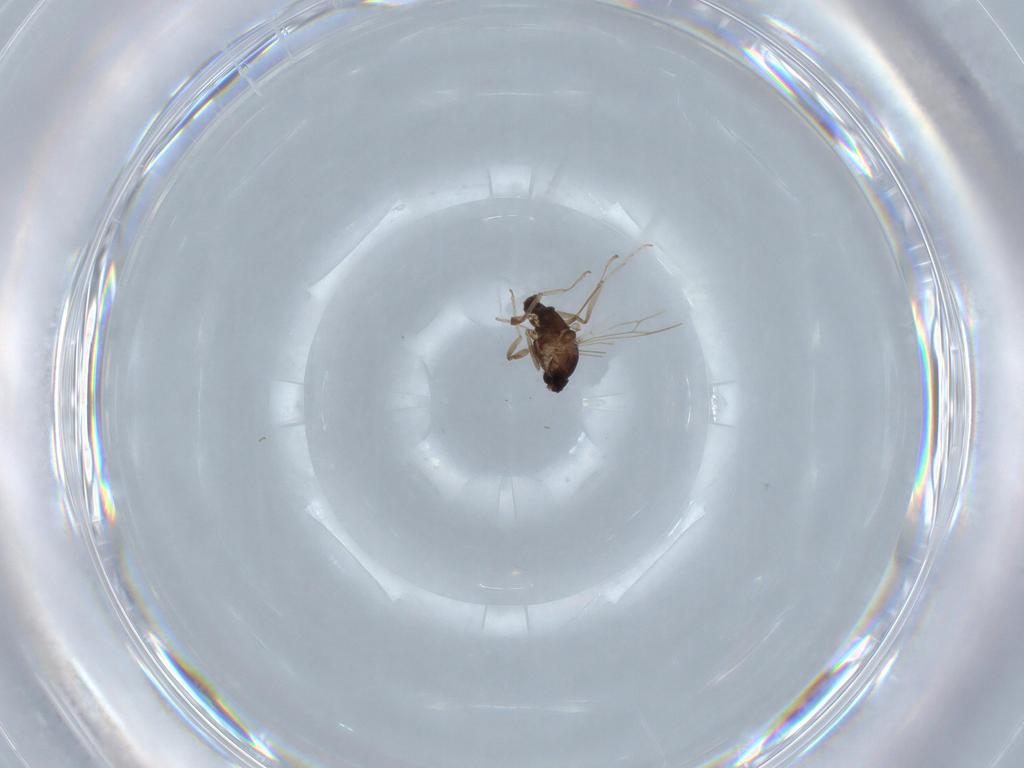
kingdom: Animalia
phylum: Arthropoda
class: Insecta
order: Diptera
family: Cecidomyiidae
